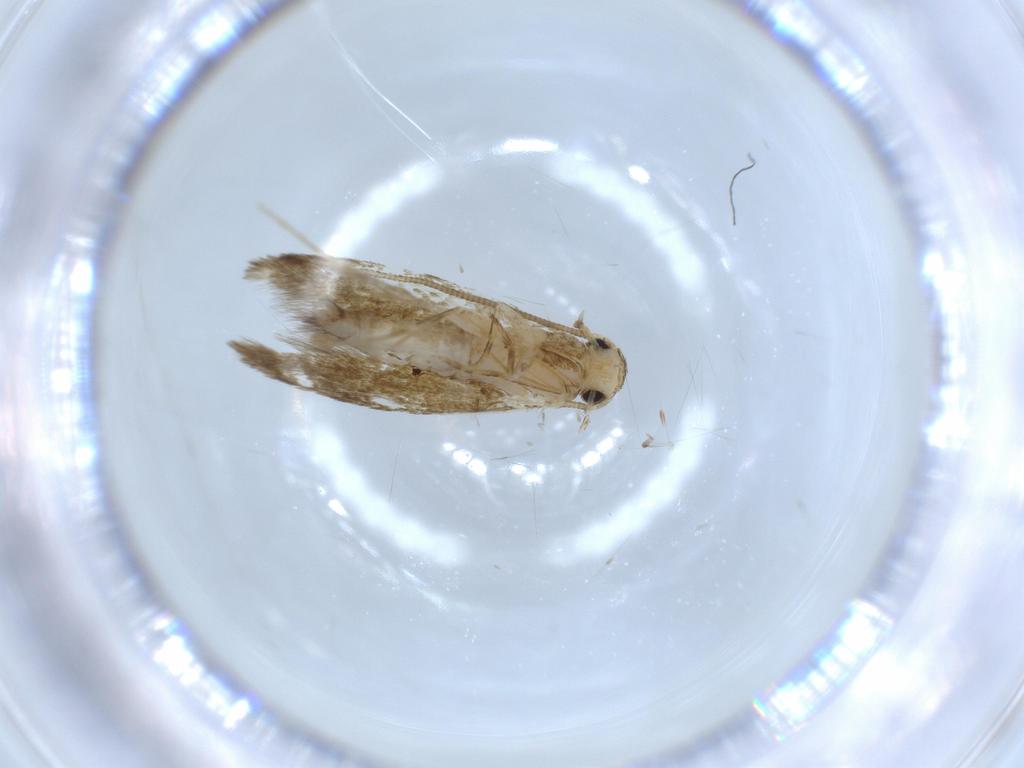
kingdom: Animalia
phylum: Arthropoda
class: Insecta
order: Lepidoptera
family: Tineidae
